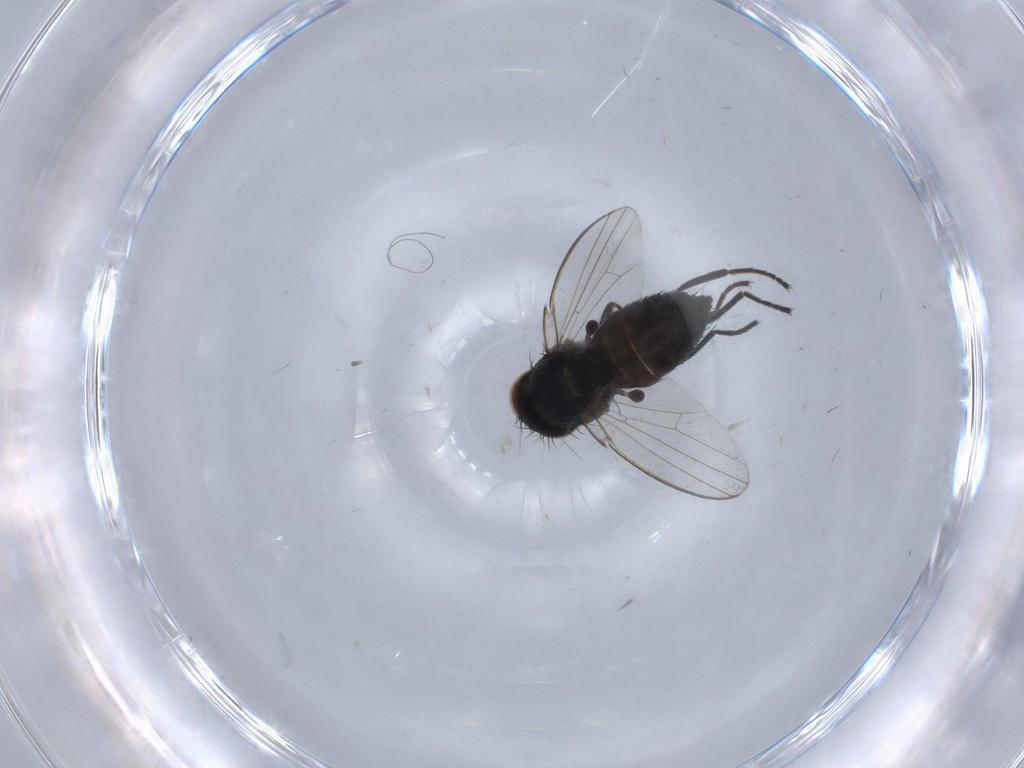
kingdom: Animalia
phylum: Arthropoda
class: Insecta
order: Diptera
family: Milichiidae
